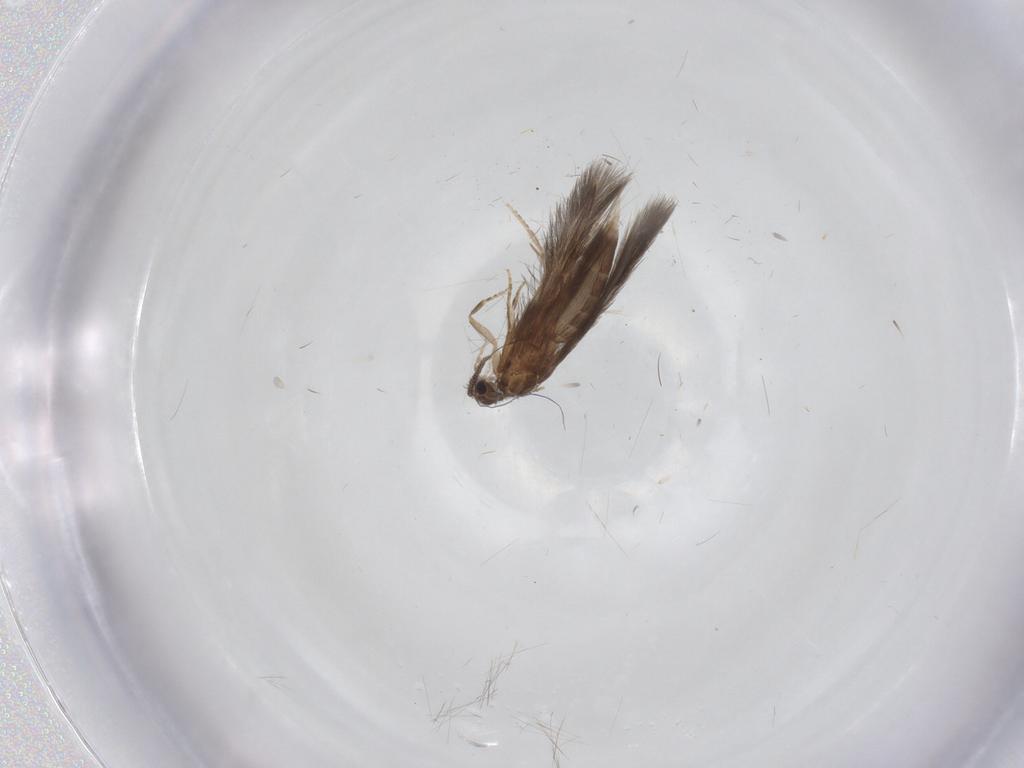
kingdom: Animalia
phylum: Arthropoda
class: Insecta
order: Trichoptera
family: Hydroptilidae
